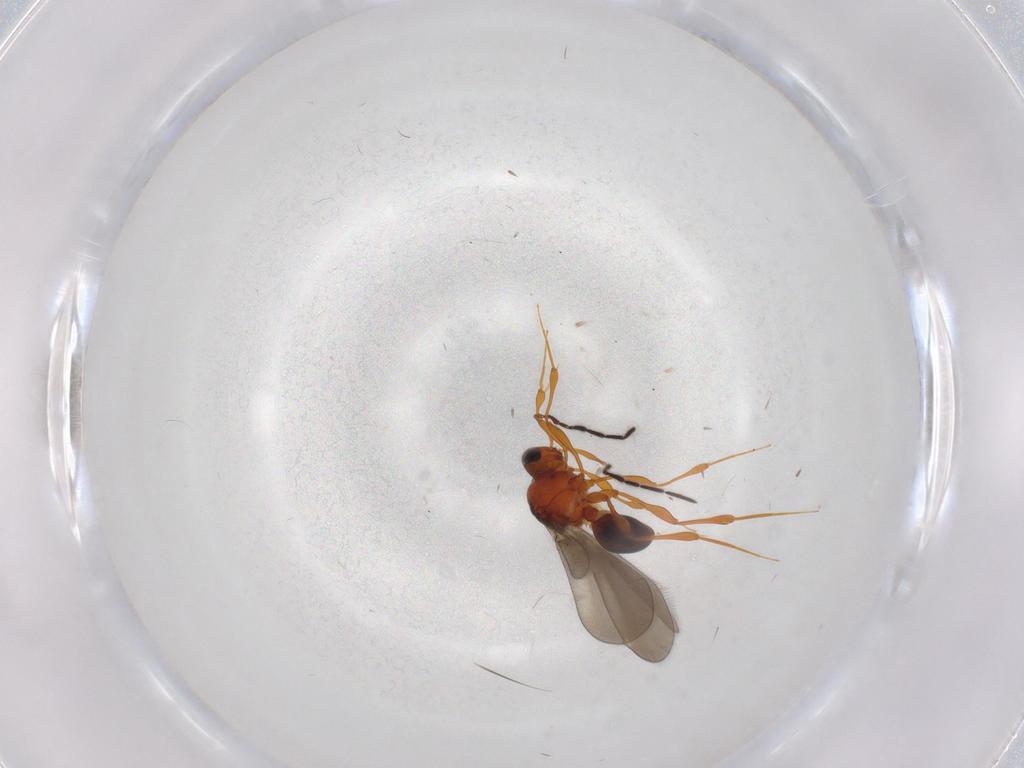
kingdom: Animalia
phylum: Arthropoda
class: Insecta
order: Hymenoptera
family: Platygastridae
